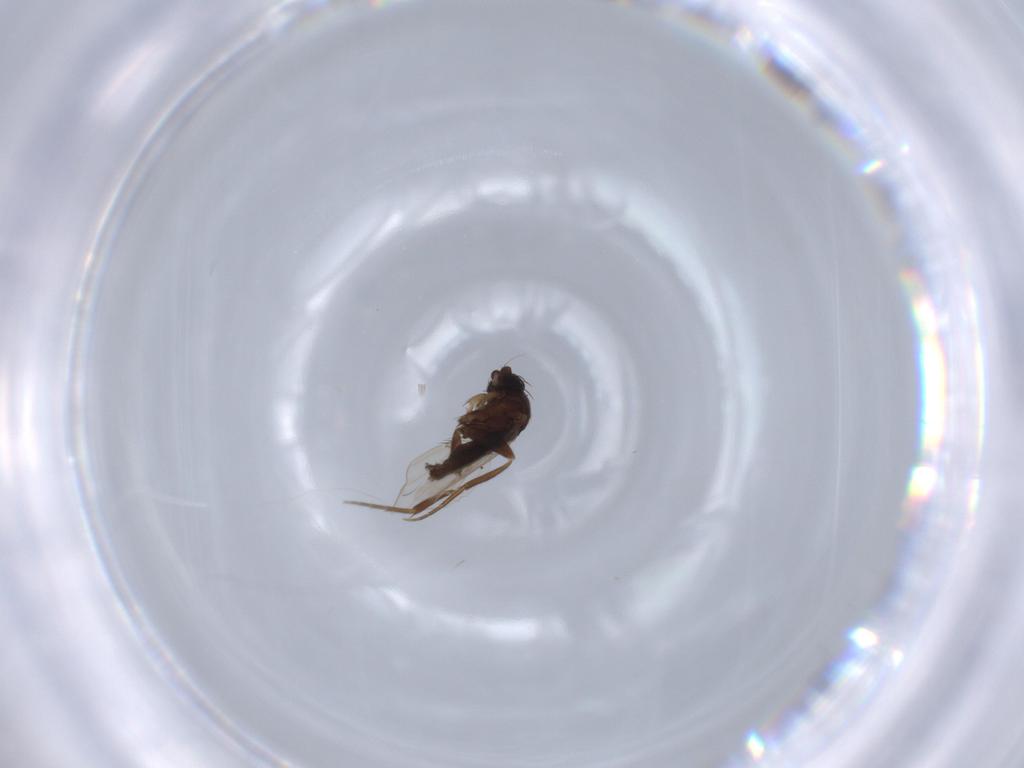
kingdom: Animalia
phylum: Arthropoda
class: Insecta
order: Diptera
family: Phoridae
